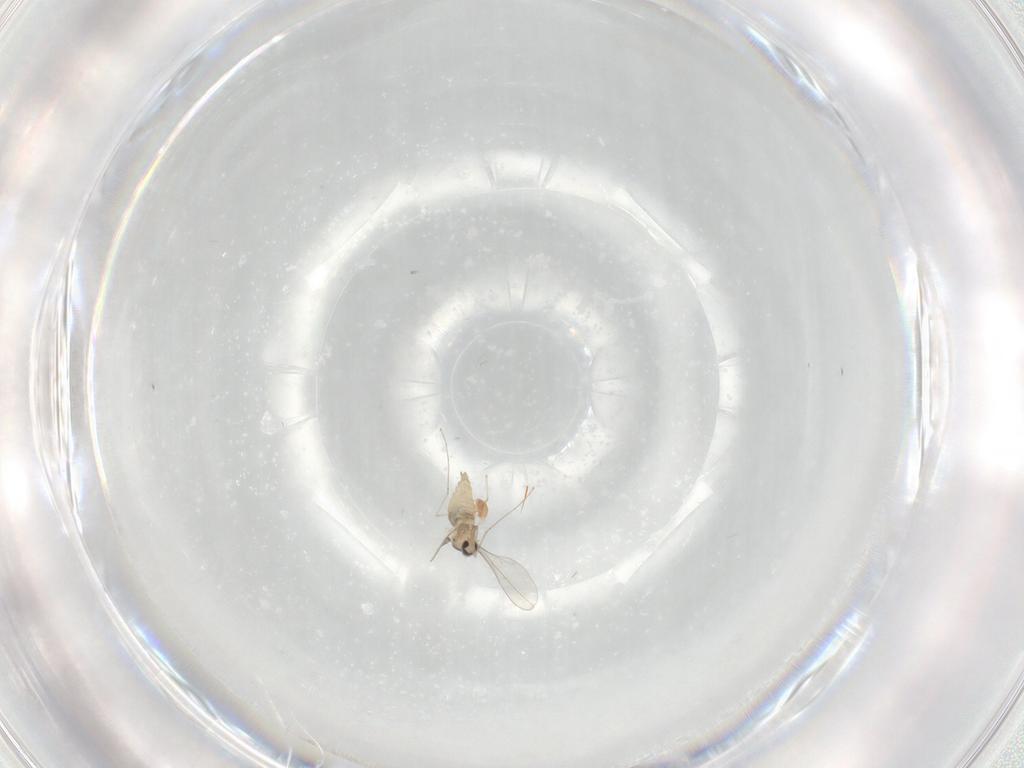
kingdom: Animalia
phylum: Arthropoda
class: Insecta
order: Diptera
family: Cecidomyiidae
